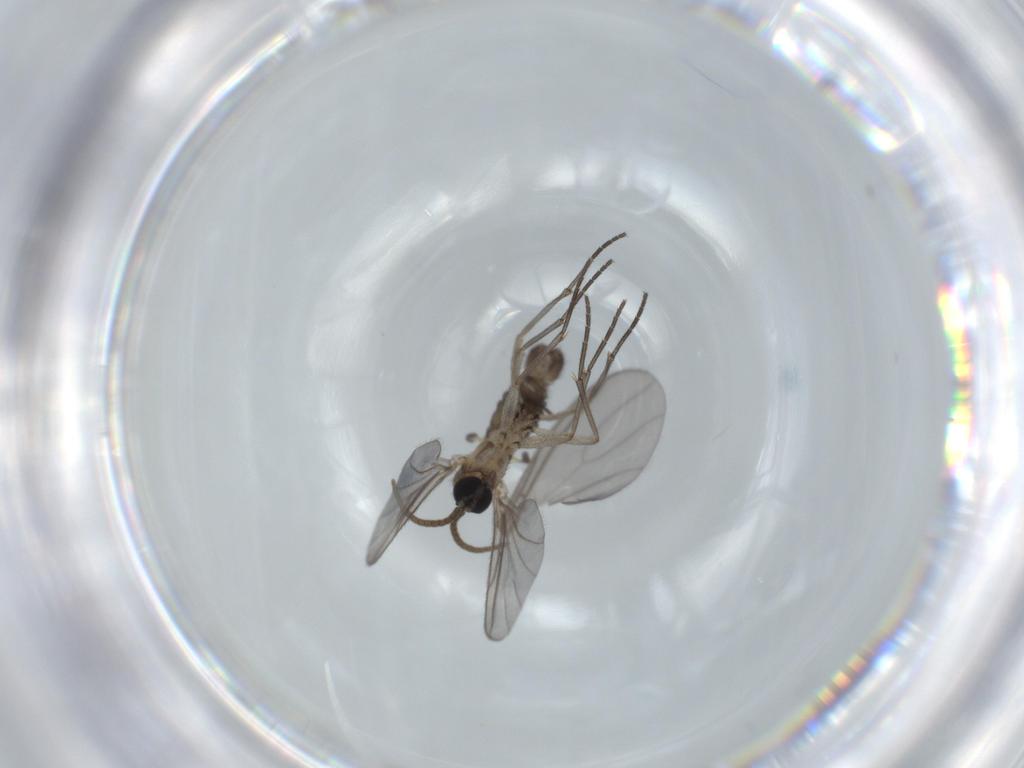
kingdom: Animalia
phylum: Arthropoda
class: Insecta
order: Diptera
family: Sciaridae
